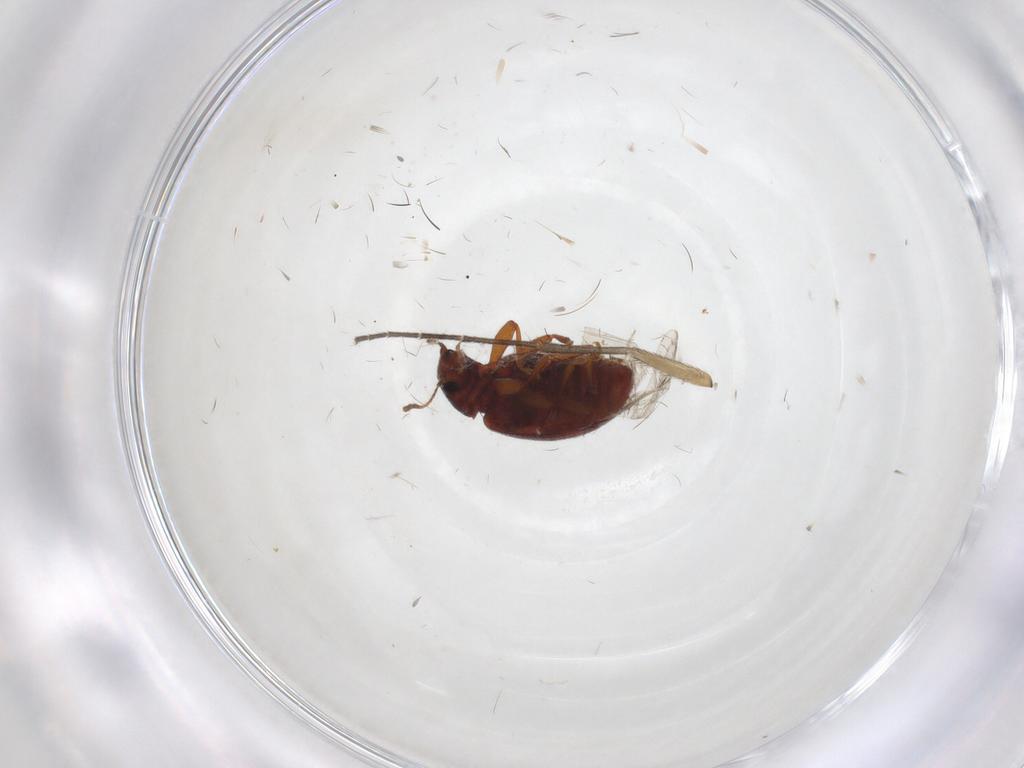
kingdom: Animalia
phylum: Arthropoda
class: Insecta
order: Coleoptera
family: Latridiidae
